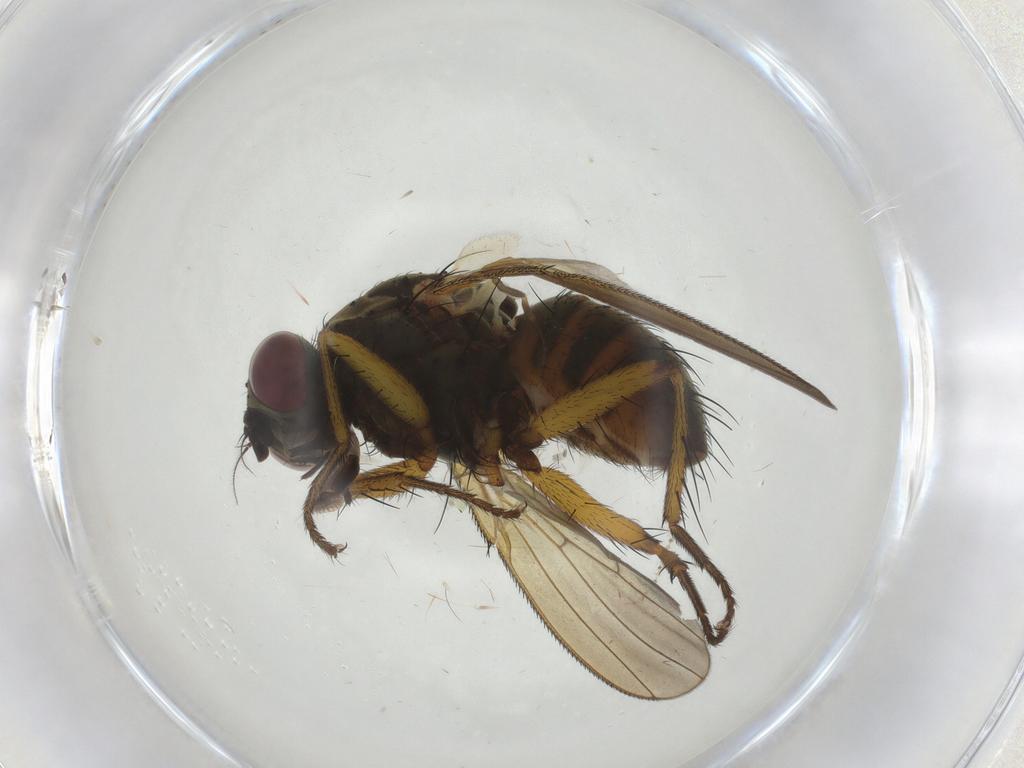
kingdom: Animalia
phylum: Arthropoda
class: Insecta
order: Diptera
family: Muscidae
